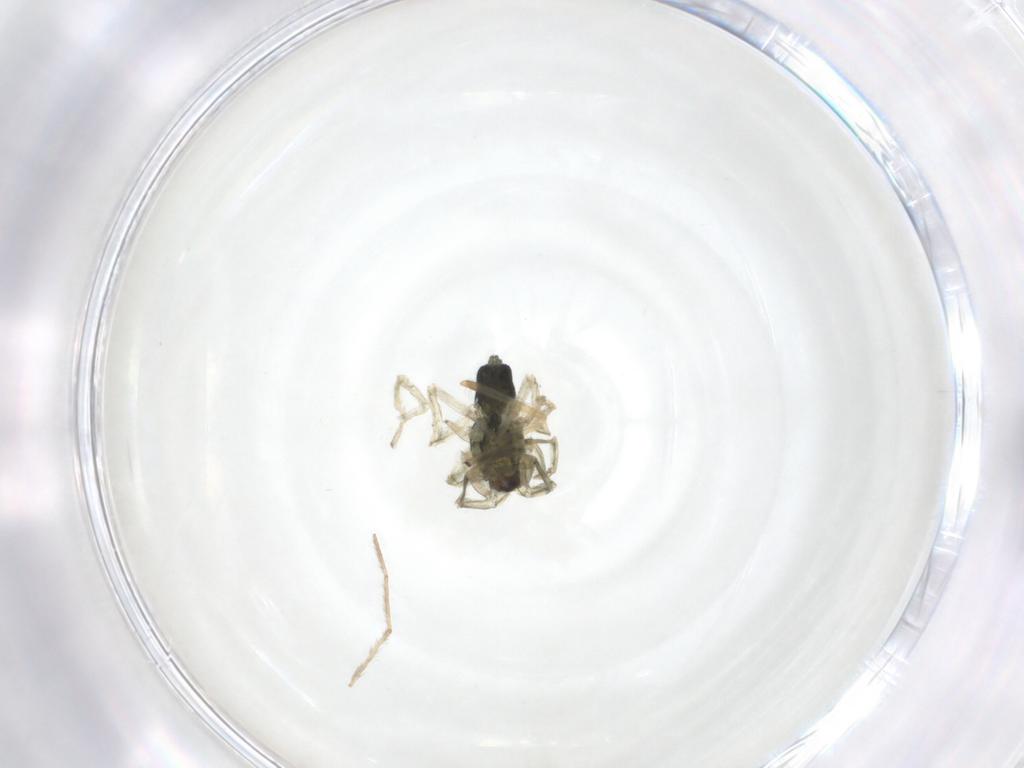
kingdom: Animalia
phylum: Arthropoda
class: Arachnida
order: Araneae
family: Trachelidae
